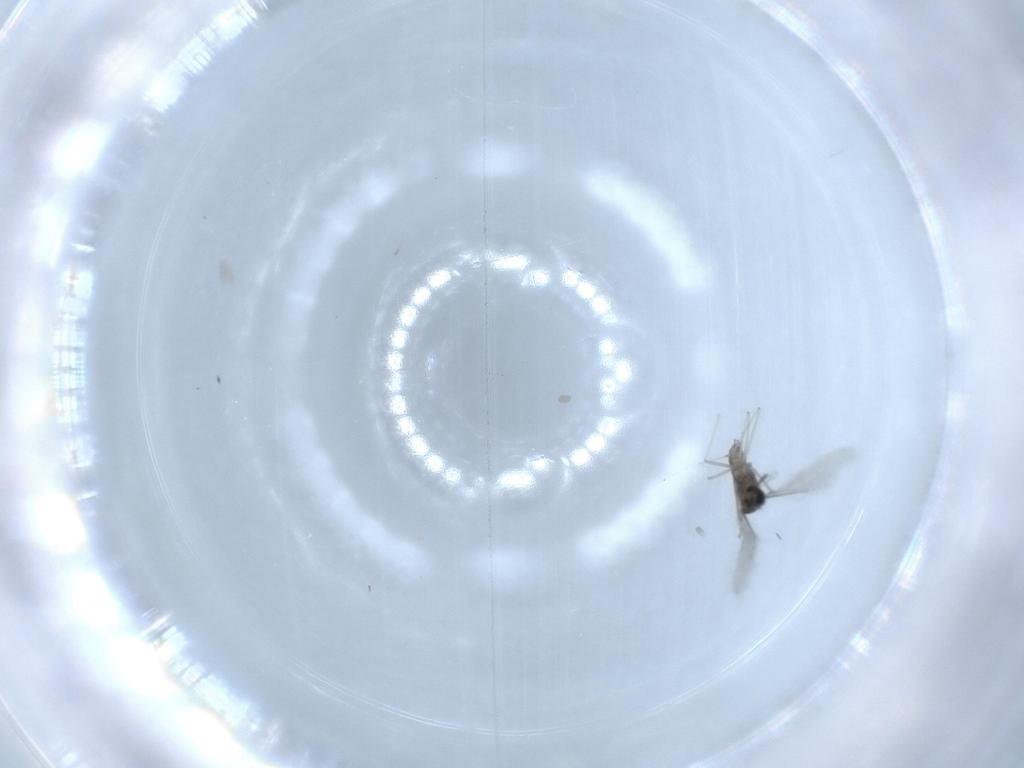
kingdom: Animalia
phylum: Arthropoda
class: Insecta
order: Diptera
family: Cecidomyiidae
